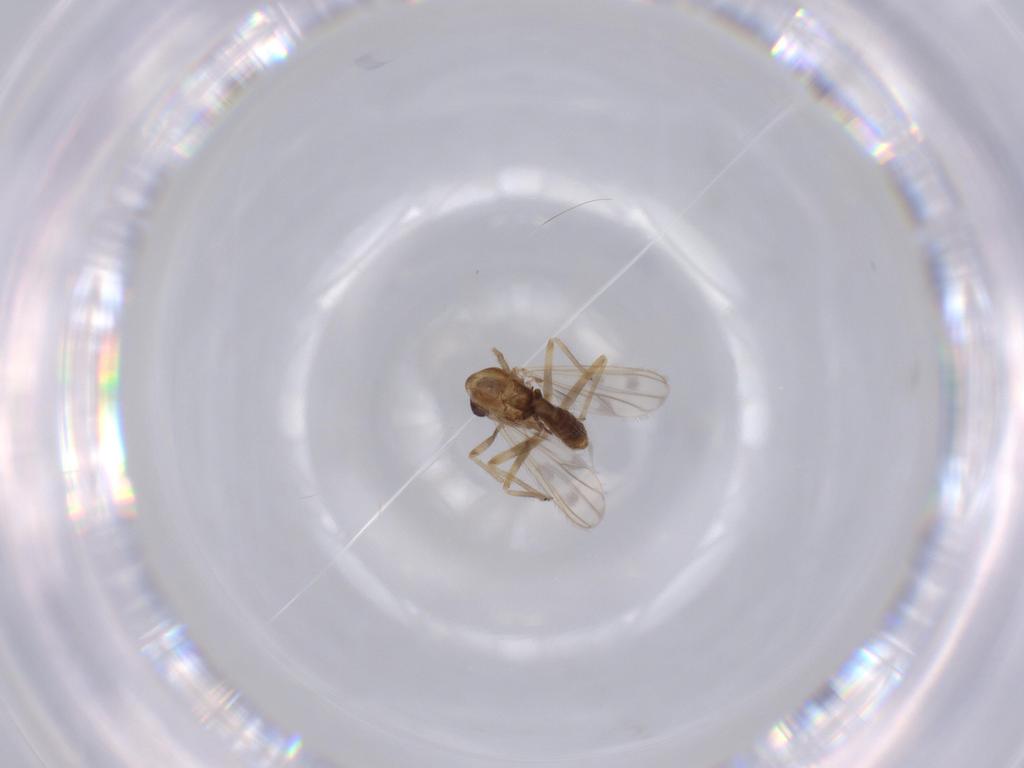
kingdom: Animalia
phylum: Arthropoda
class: Insecta
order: Diptera
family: Chironomidae
